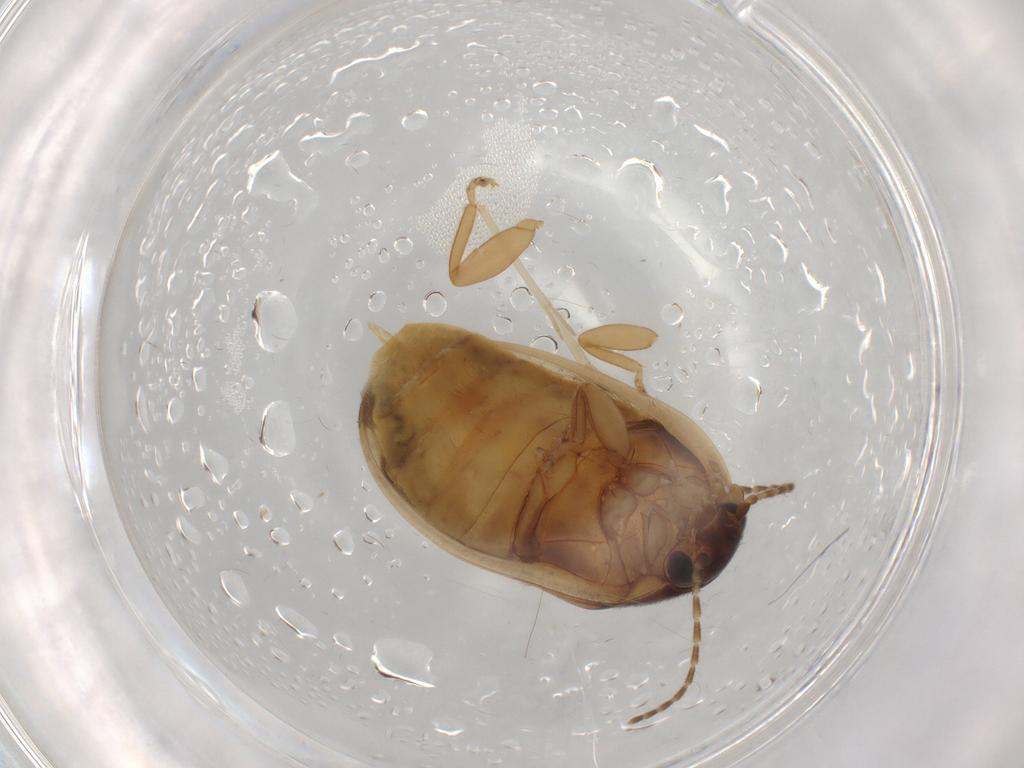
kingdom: Animalia
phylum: Arthropoda
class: Insecta
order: Coleoptera
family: Scirtidae
